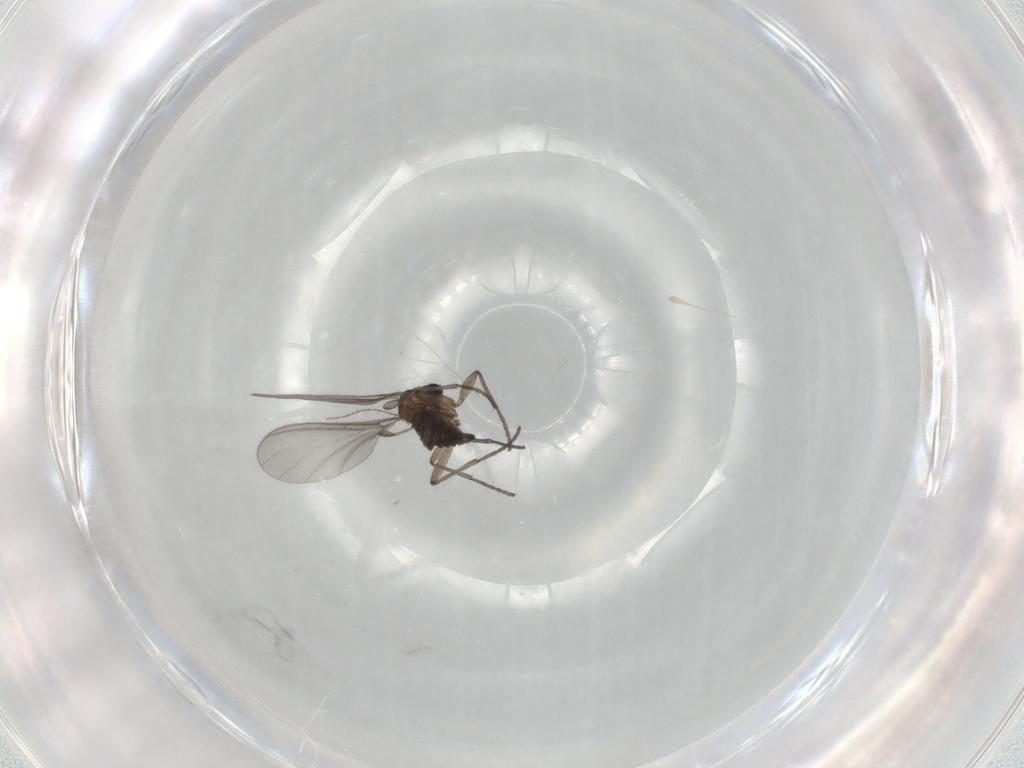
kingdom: Animalia
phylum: Arthropoda
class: Insecta
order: Diptera
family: Sciaridae
